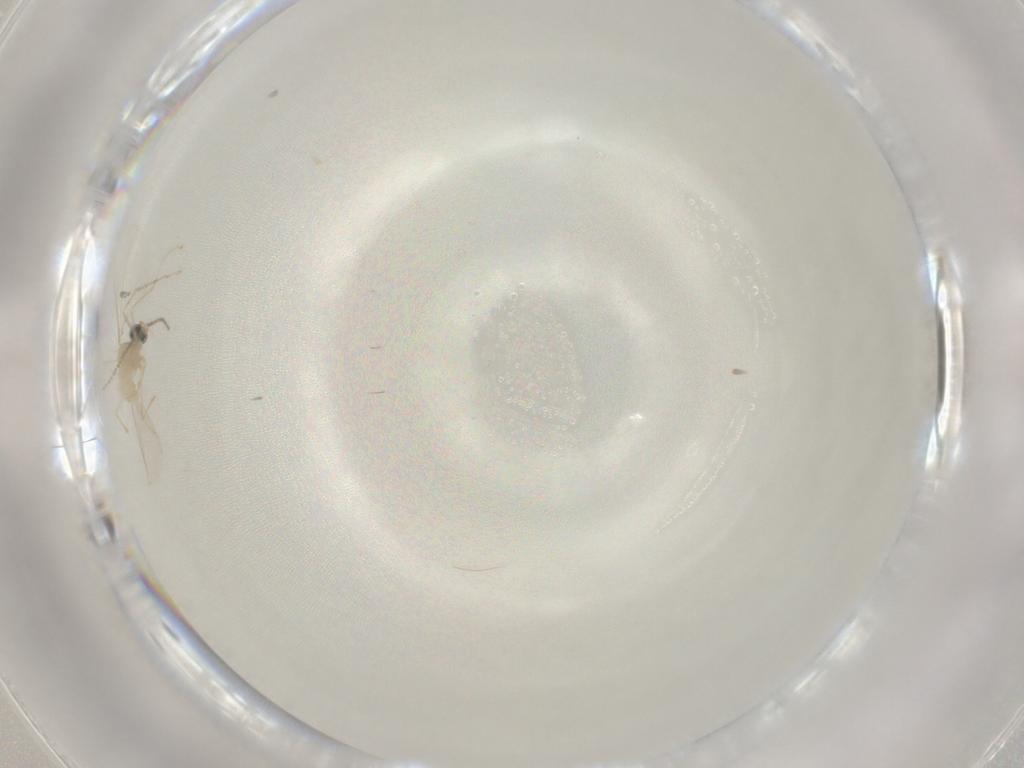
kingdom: Animalia
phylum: Arthropoda
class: Insecta
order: Diptera
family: Cecidomyiidae
